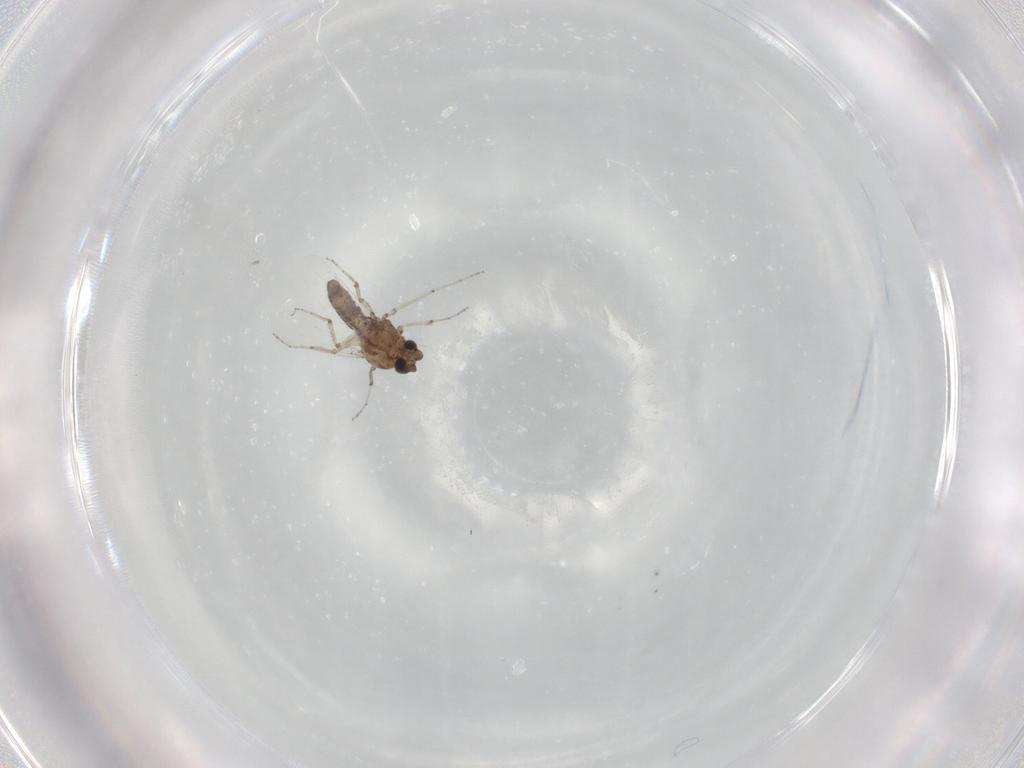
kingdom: Animalia
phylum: Arthropoda
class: Insecta
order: Diptera
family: Ceratopogonidae
